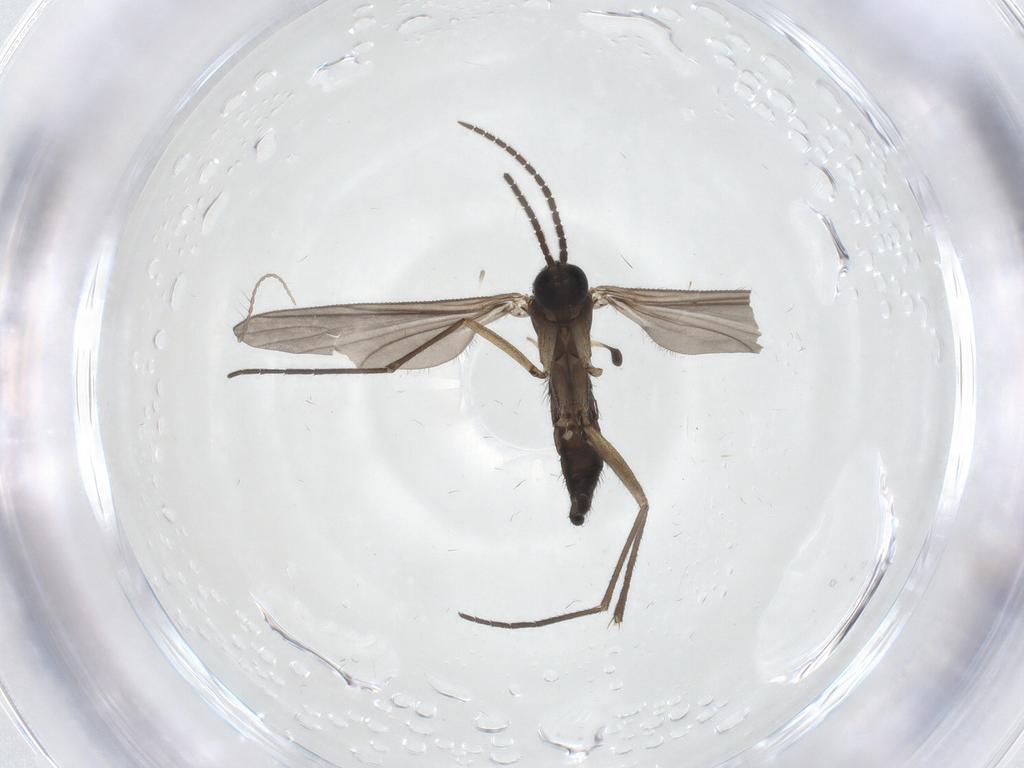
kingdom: Animalia
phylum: Arthropoda
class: Insecta
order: Diptera
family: Sciaridae
